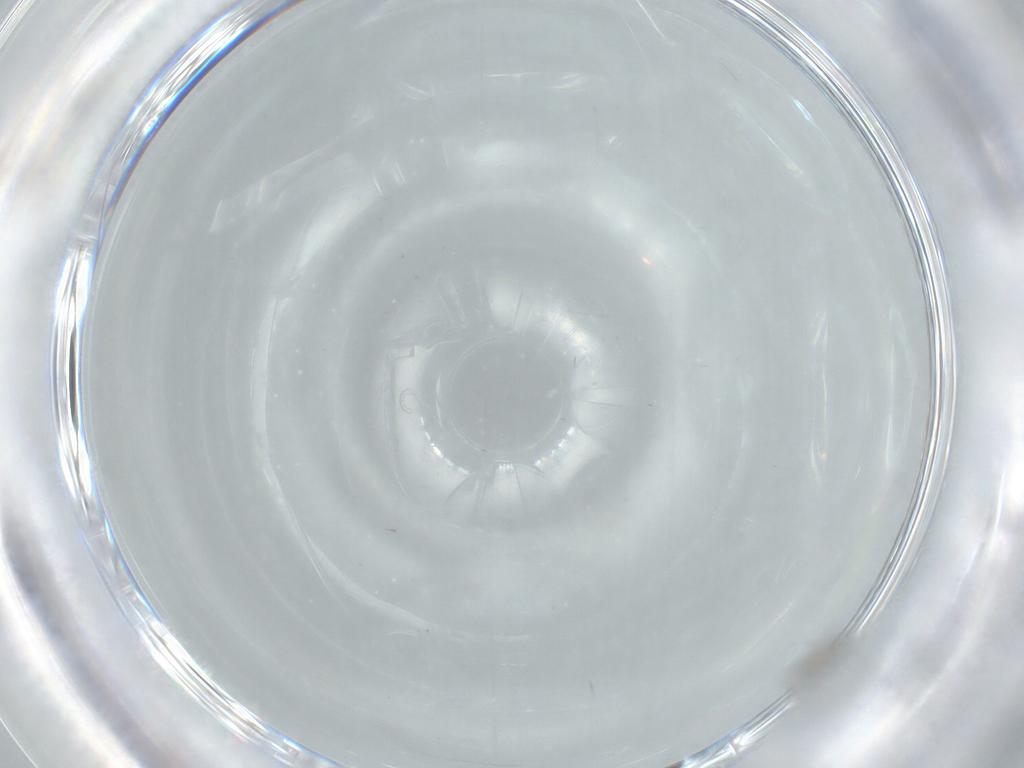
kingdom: Animalia
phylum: Arthropoda
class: Insecta
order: Diptera
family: Cecidomyiidae
